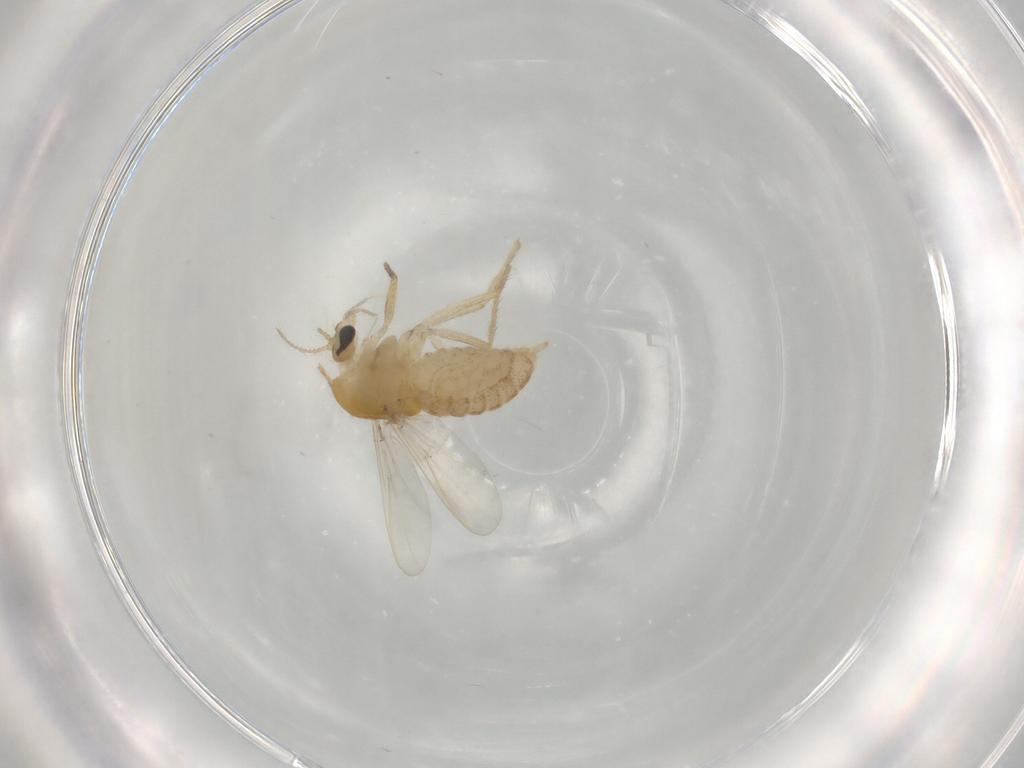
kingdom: Animalia
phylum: Arthropoda
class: Insecta
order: Diptera
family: Chironomidae
